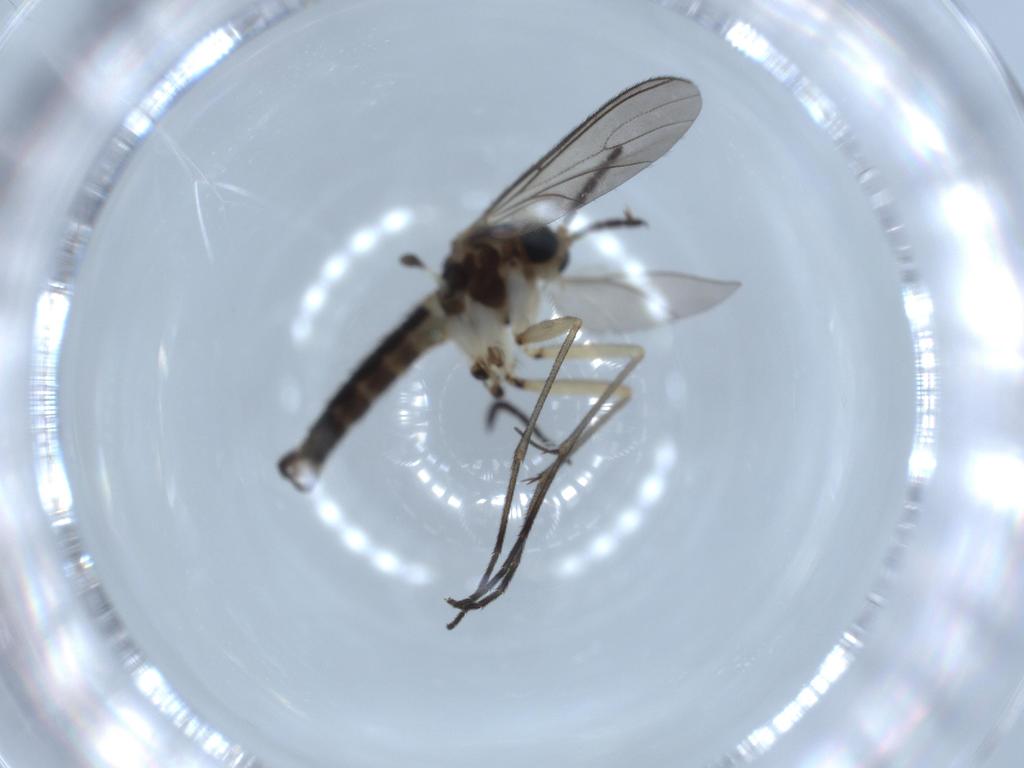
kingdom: Animalia
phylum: Arthropoda
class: Insecta
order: Diptera
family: Sciaridae
